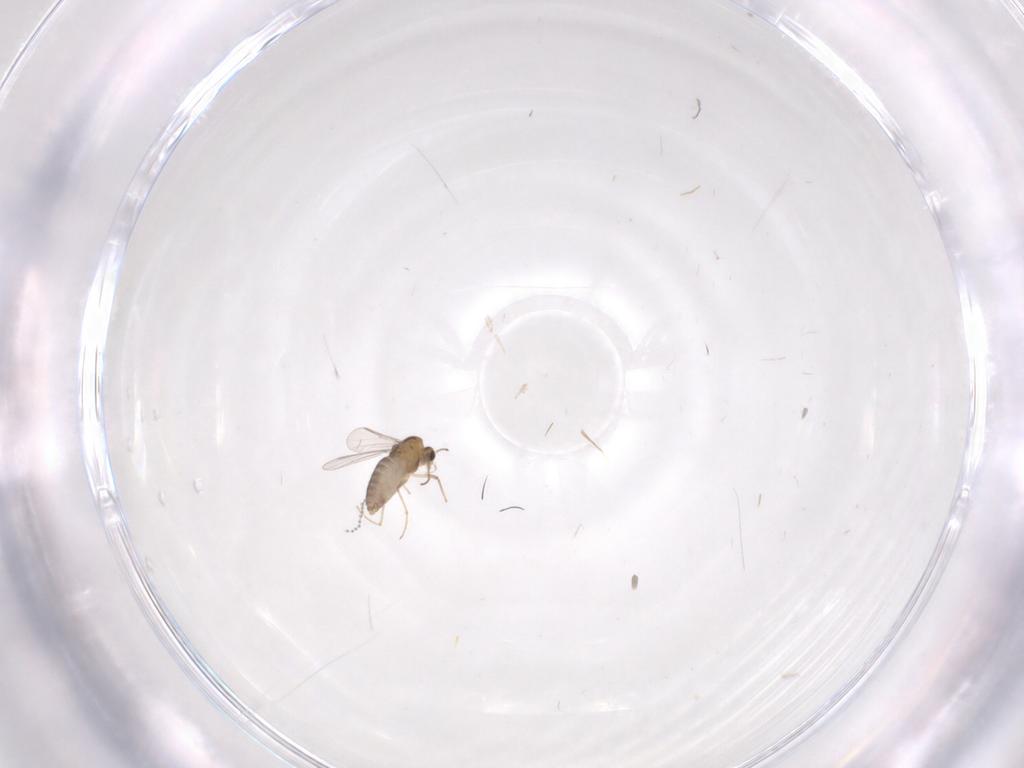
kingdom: Animalia
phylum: Arthropoda
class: Insecta
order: Diptera
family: Chironomidae
